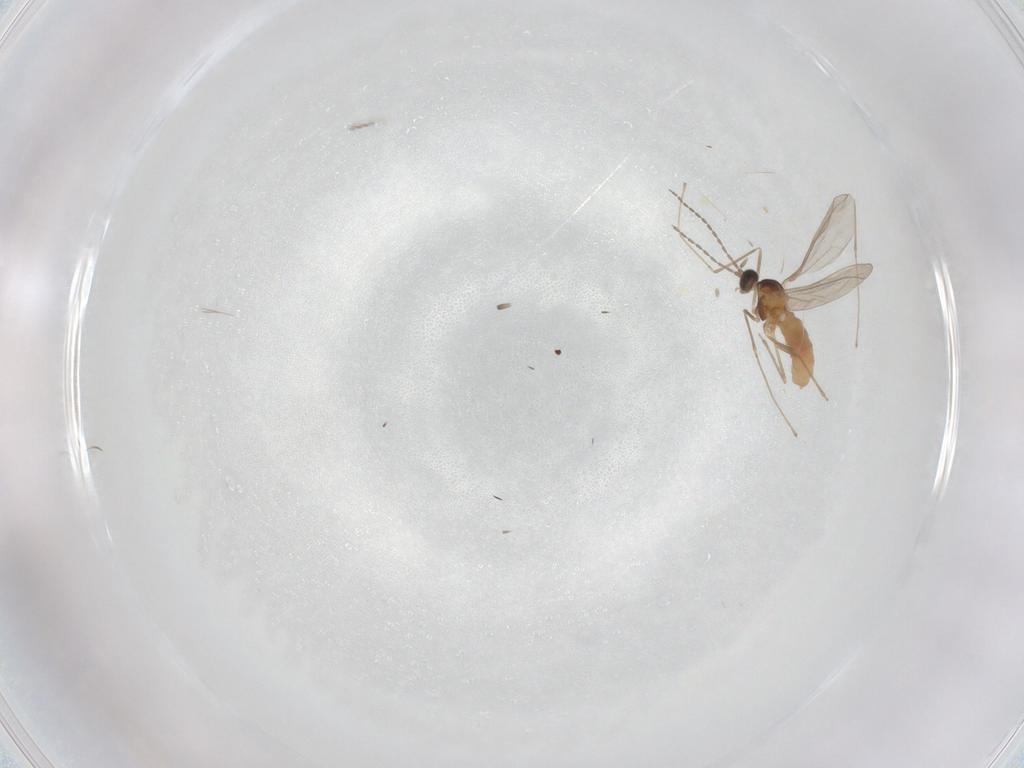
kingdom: Animalia
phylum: Arthropoda
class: Insecta
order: Diptera
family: Cecidomyiidae
